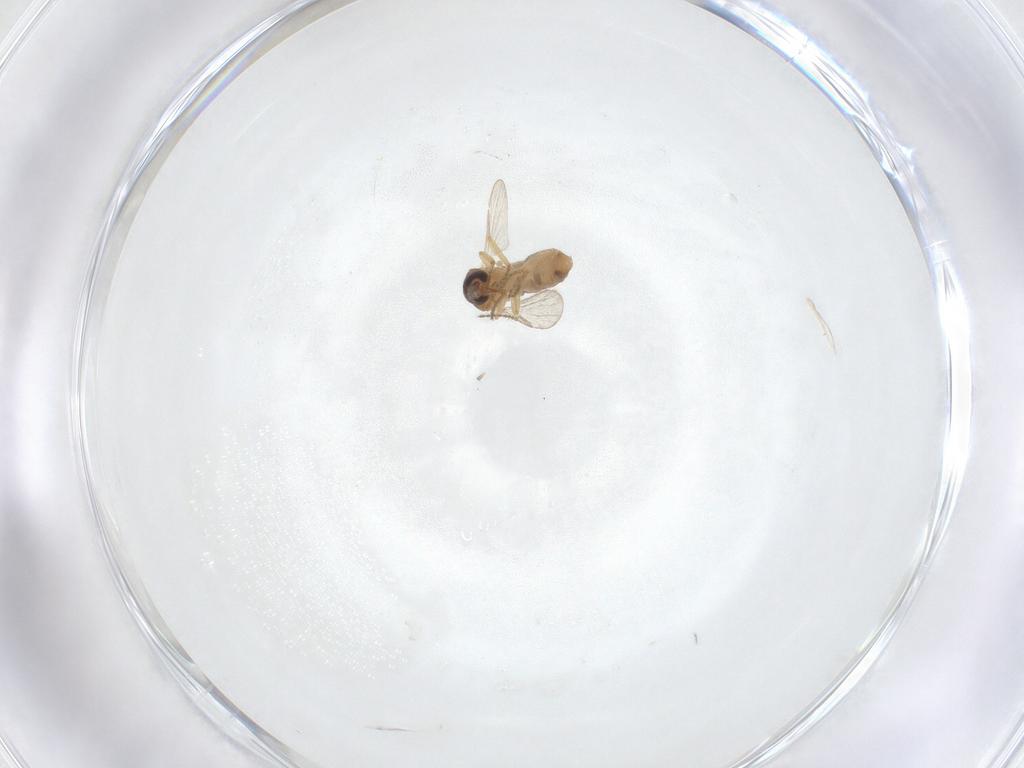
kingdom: Animalia
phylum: Arthropoda
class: Insecta
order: Diptera
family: Ceratopogonidae
